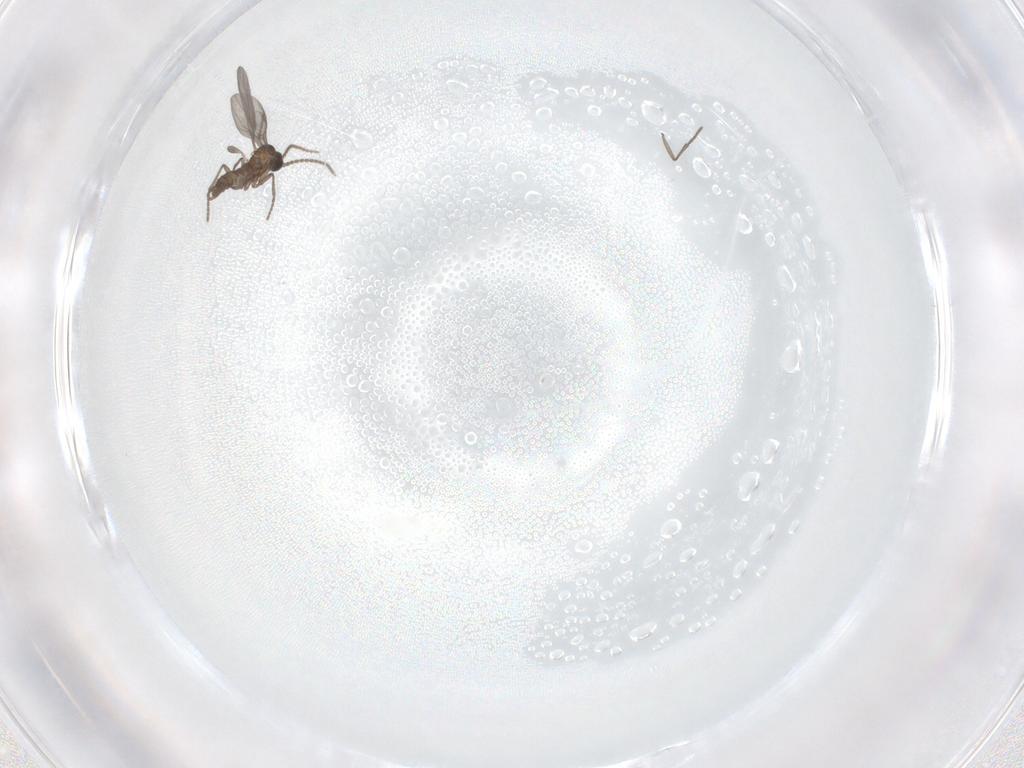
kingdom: Animalia
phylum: Arthropoda
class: Insecta
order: Diptera
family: Sciaridae
